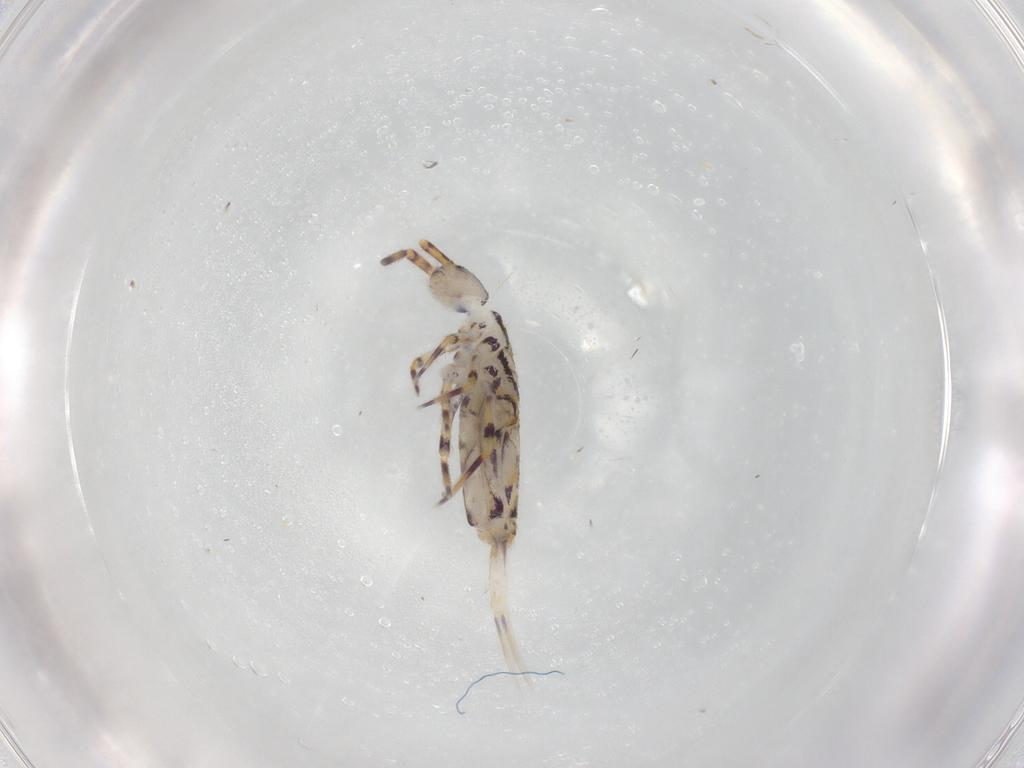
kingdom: Animalia
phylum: Arthropoda
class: Collembola
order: Entomobryomorpha
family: Entomobryidae
